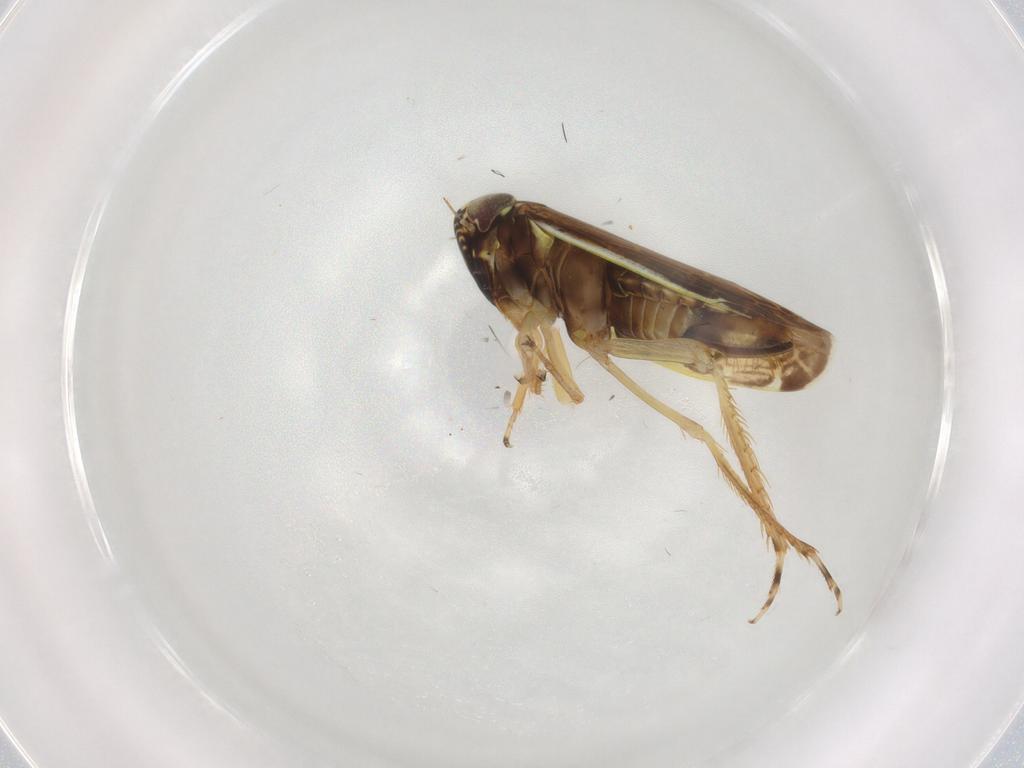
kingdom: Animalia
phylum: Arthropoda
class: Insecta
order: Hemiptera
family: Cicadellidae
